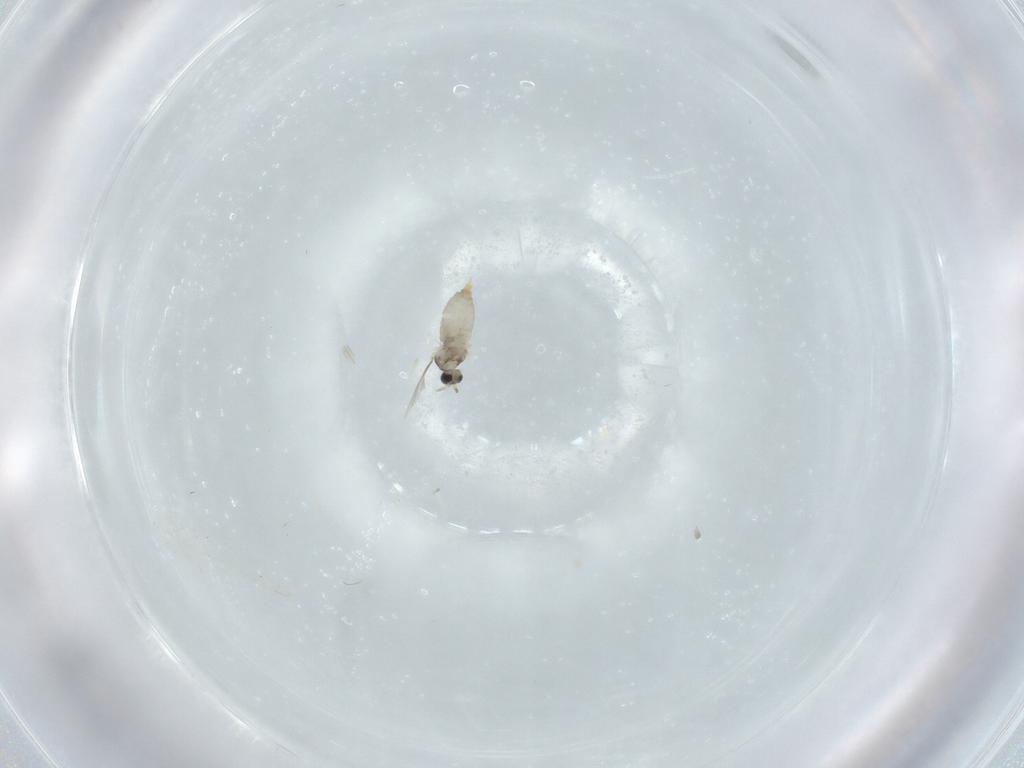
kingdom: Animalia
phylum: Arthropoda
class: Insecta
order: Diptera
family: Cecidomyiidae
